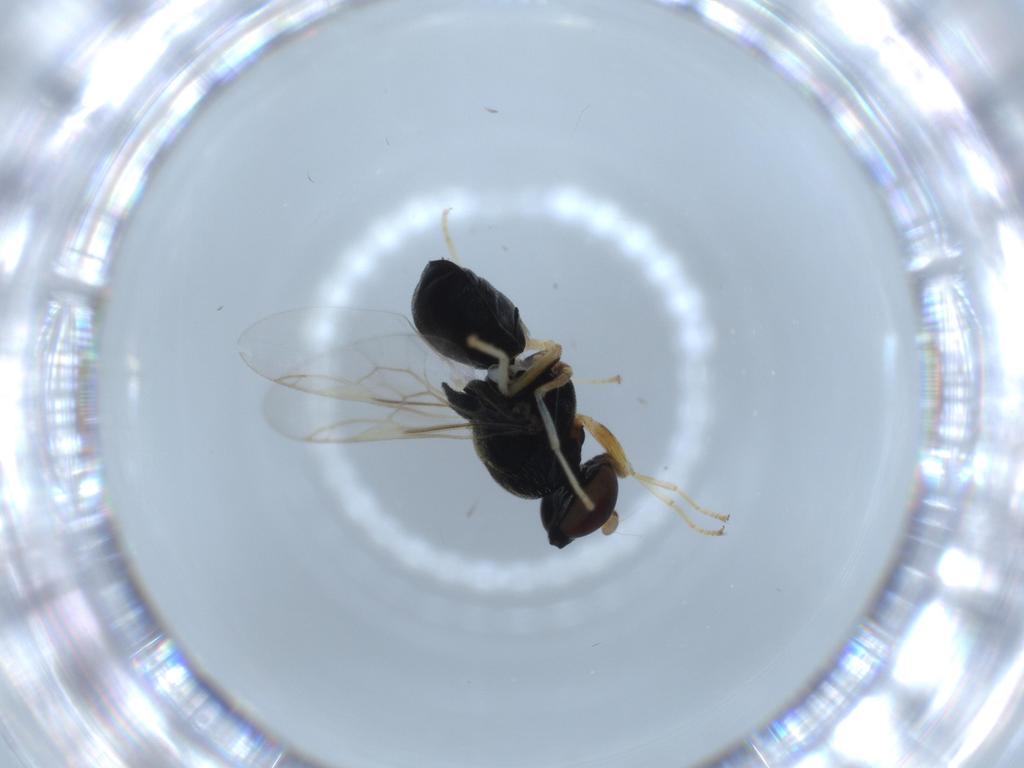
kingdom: Animalia
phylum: Arthropoda
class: Insecta
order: Diptera
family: Stratiomyidae
